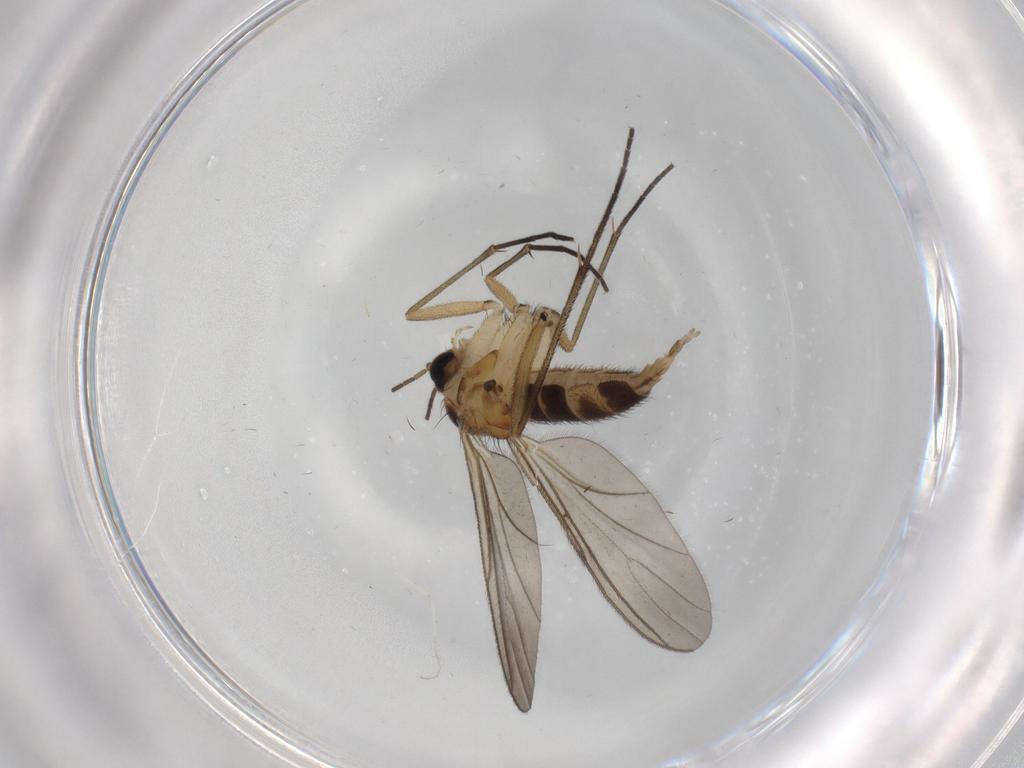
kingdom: Animalia
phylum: Arthropoda
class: Insecta
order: Diptera
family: Cecidomyiidae
